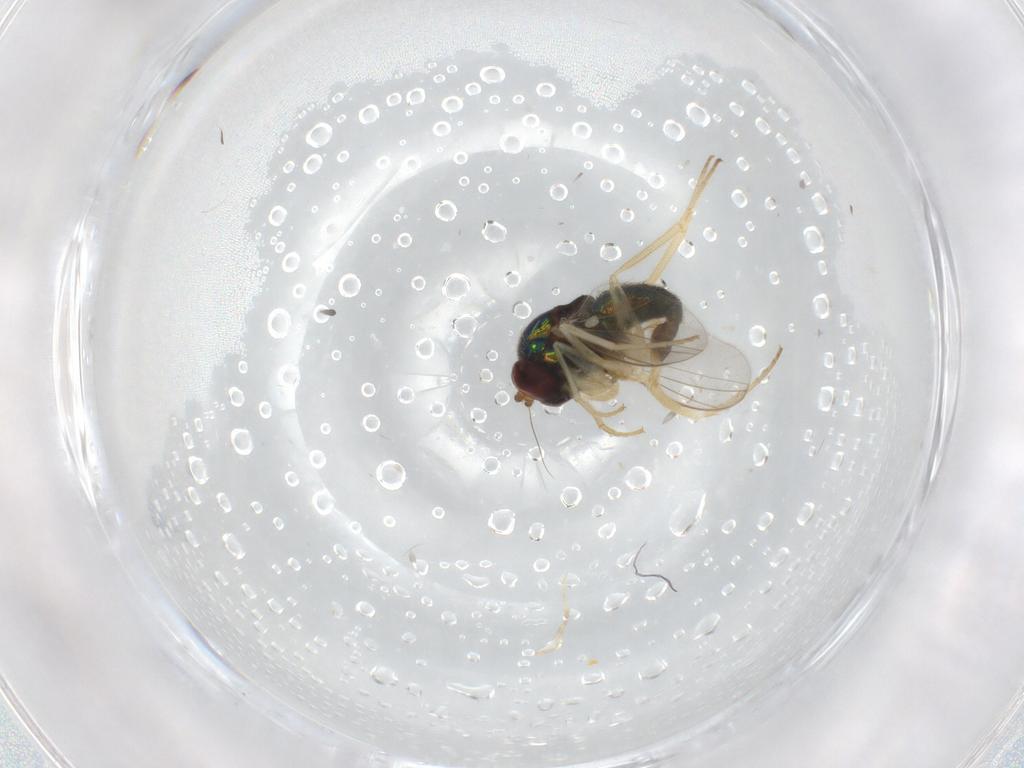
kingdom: Animalia
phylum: Arthropoda
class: Insecta
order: Diptera
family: Dolichopodidae
